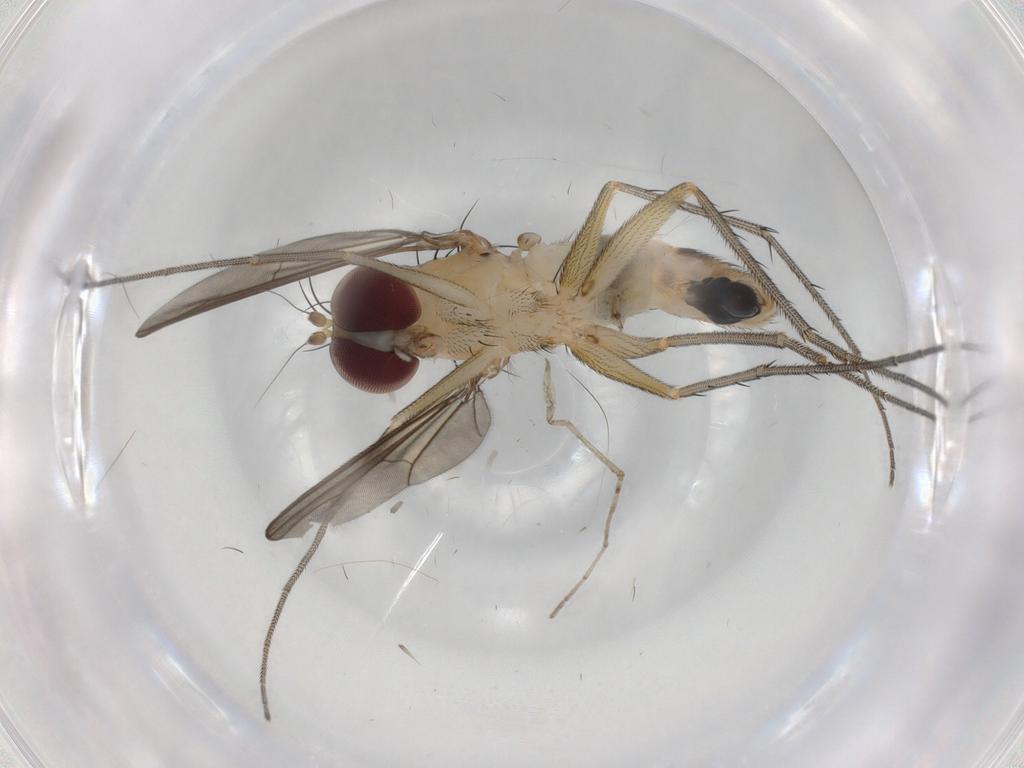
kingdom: Animalia
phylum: Arthropoda
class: Insecta
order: Diptera
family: Cecidomyiidae
